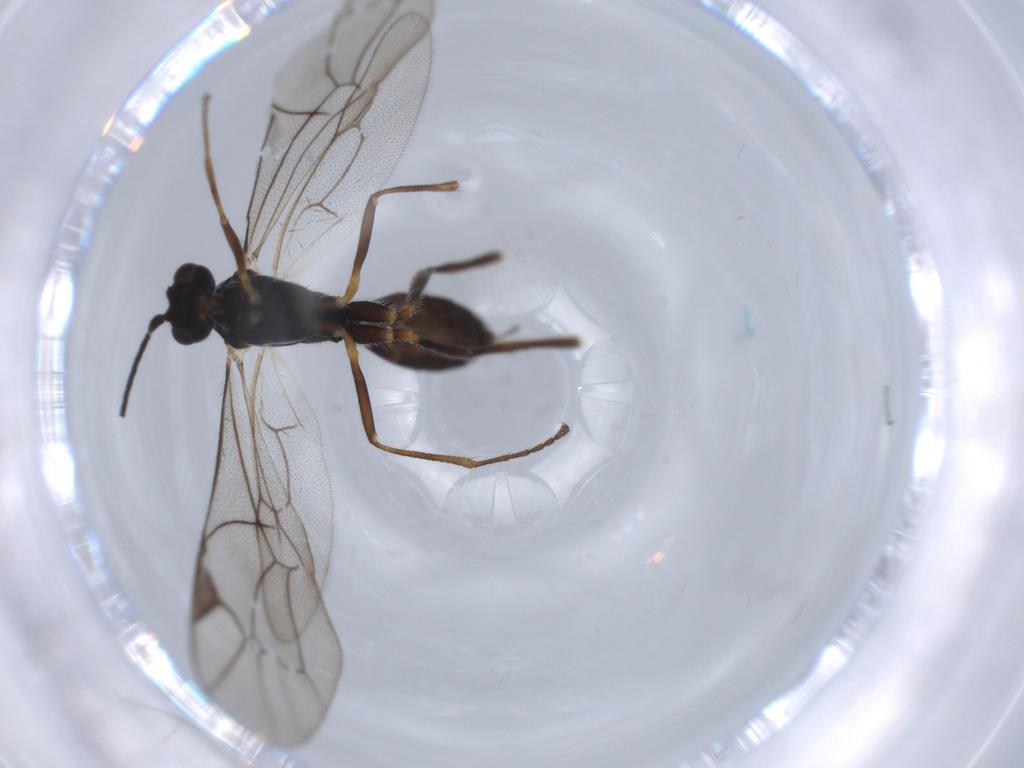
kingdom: Animalia
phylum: Arthropoda
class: Insecta
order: Hymenoptera
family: Ichneumonidae
